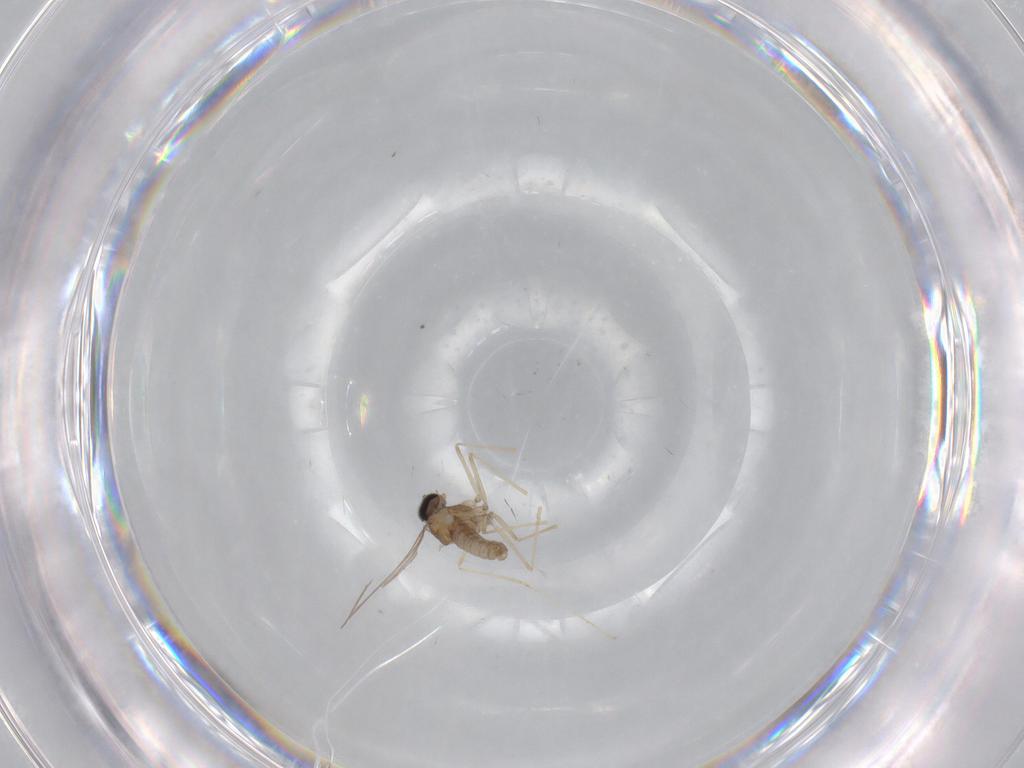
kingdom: Animalia
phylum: Arthropoda
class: Insecta
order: Diptera
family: Cecidomyiidae
